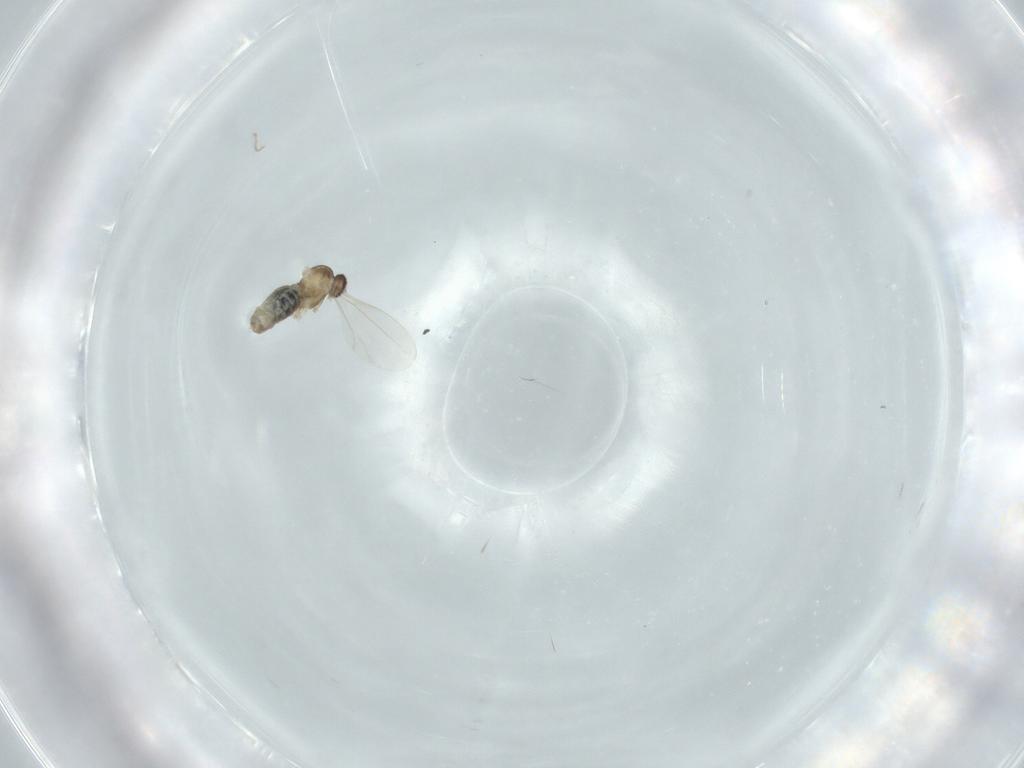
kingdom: Animalia
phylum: Arthropoda
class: Insecta
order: Diptera
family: Cecidomyiidae
